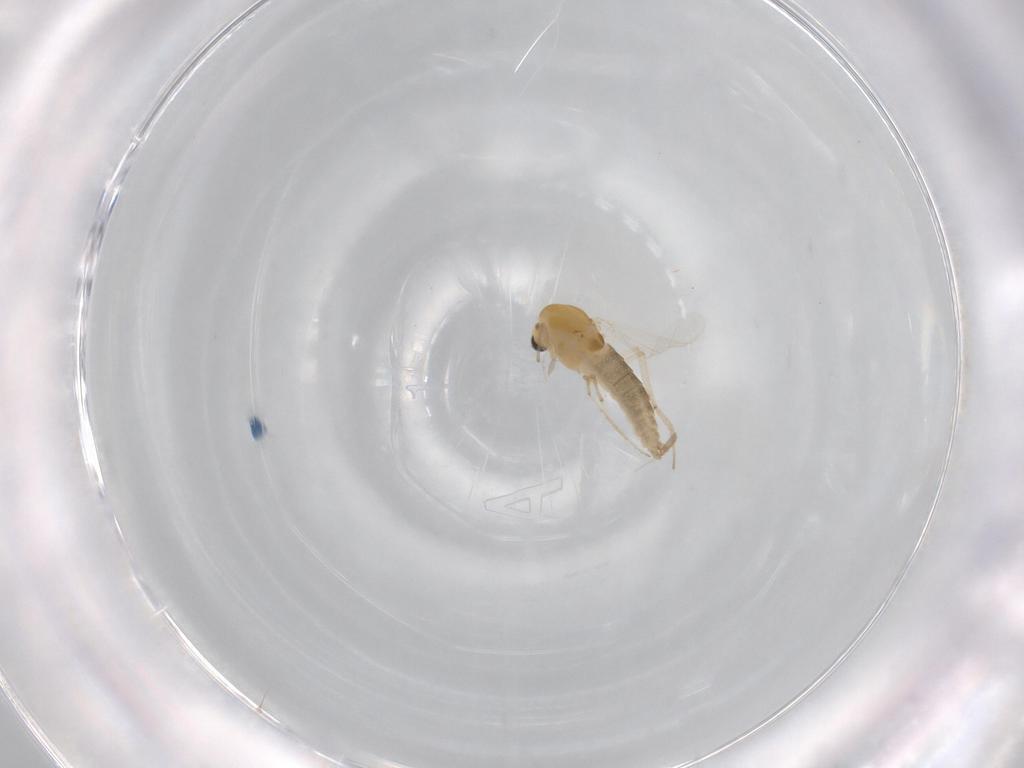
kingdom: Animalia
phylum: Arthropoda
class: Insecta
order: Diptera
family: Chironomidae
